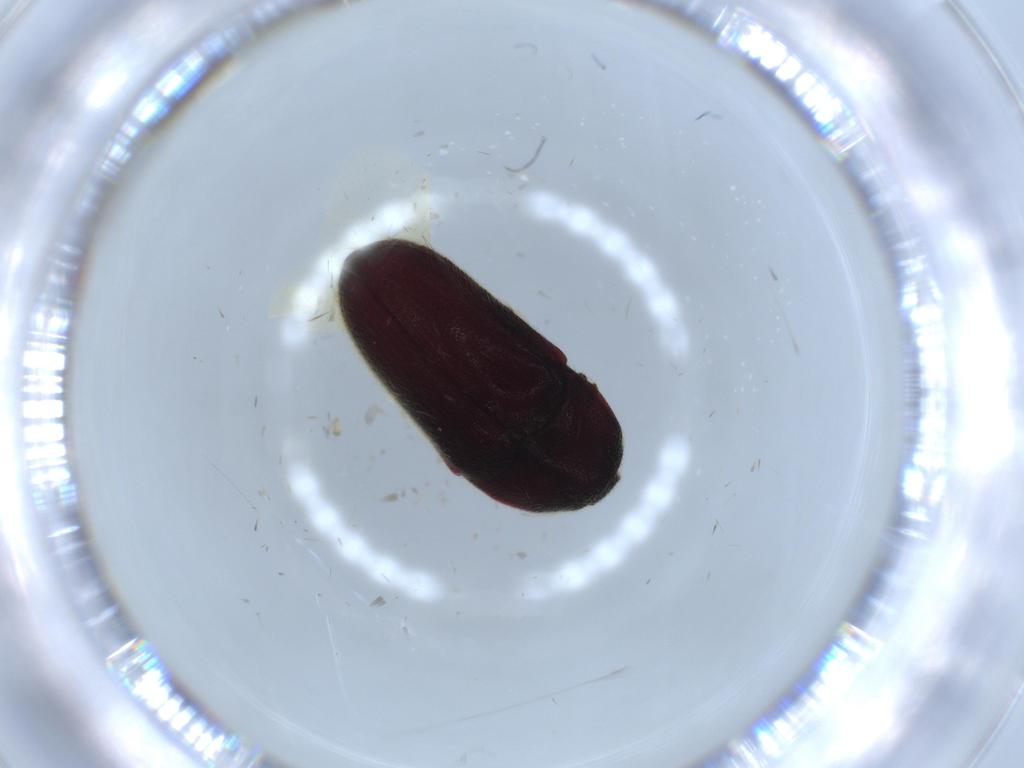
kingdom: Animalia
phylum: Arthropoda
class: Insecta
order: Coleoptera
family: Throscidae
